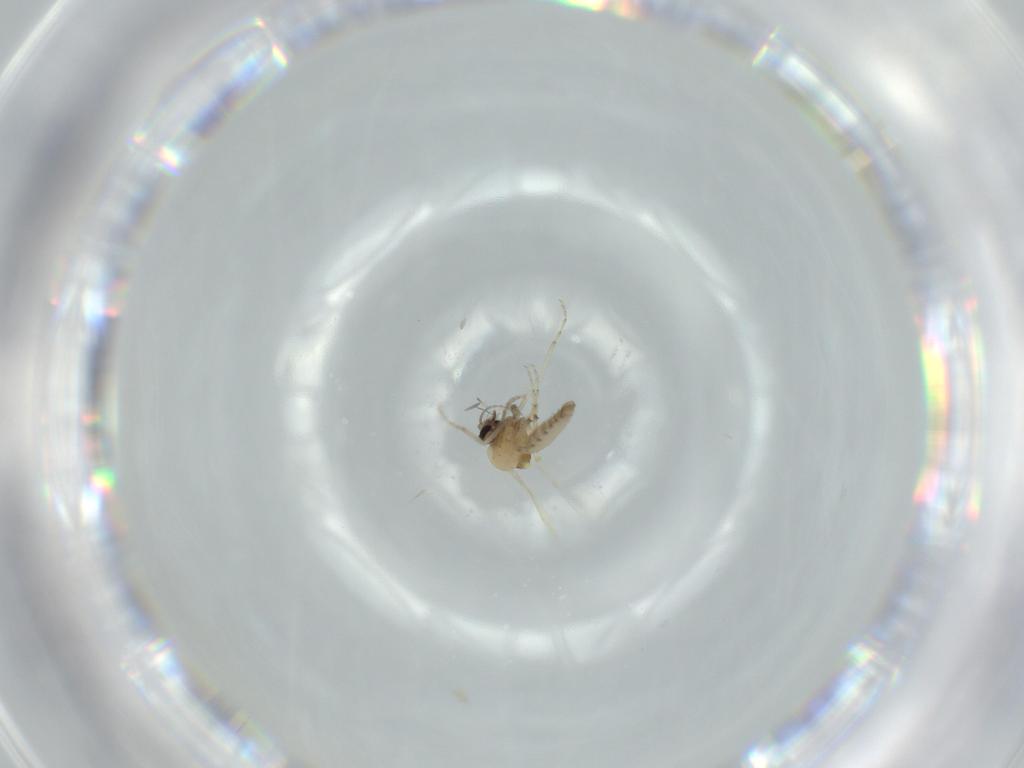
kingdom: Animalia
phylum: Arthropoda
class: Insecta
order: Diptera
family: Ceratopogonidae
